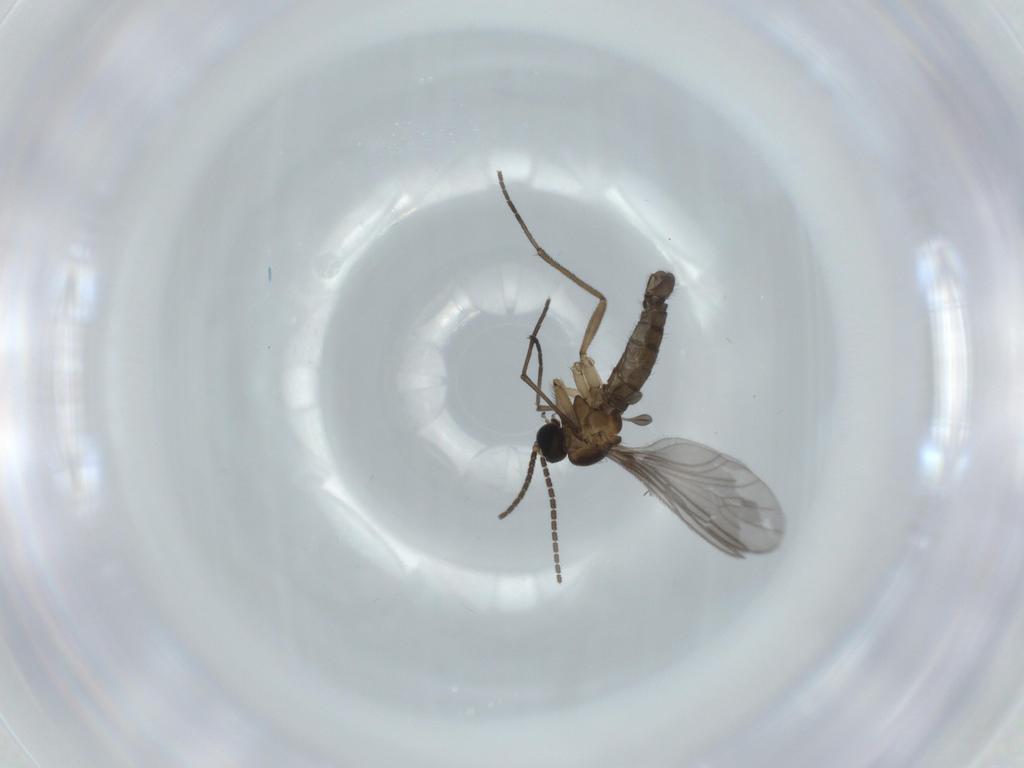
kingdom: Animalia
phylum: Arthropoda
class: Insecta
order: Diptera
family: Sciaridae
